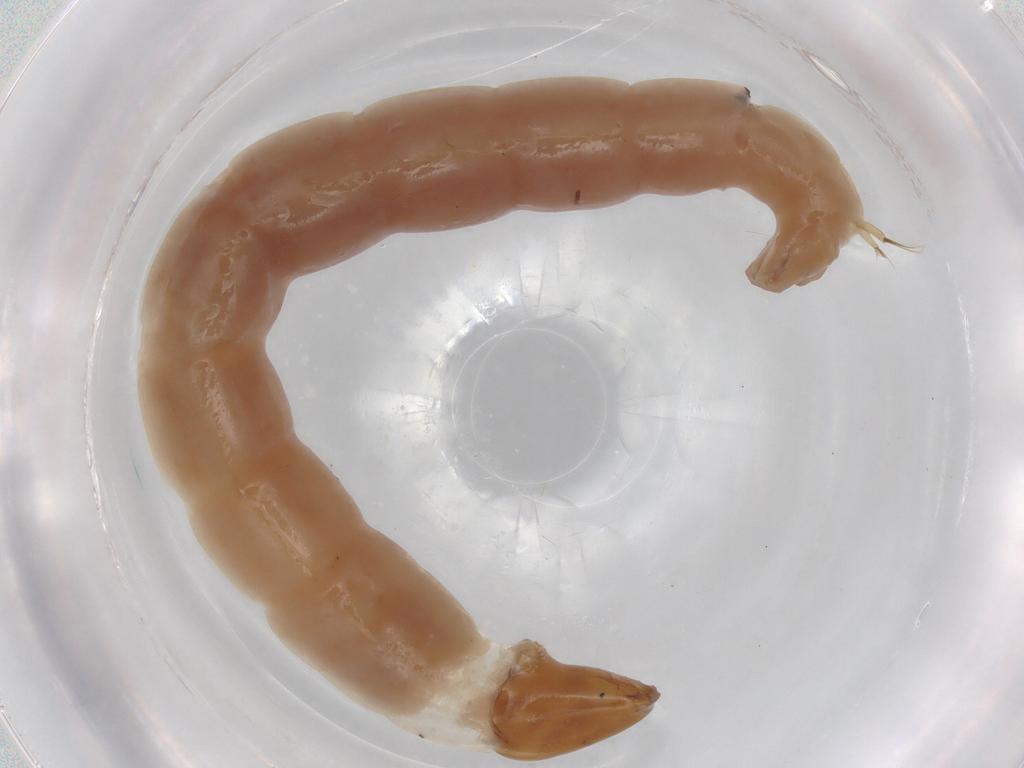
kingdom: Animalia
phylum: Arthropoda
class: Insecta
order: Diptera
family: Chironomidae
